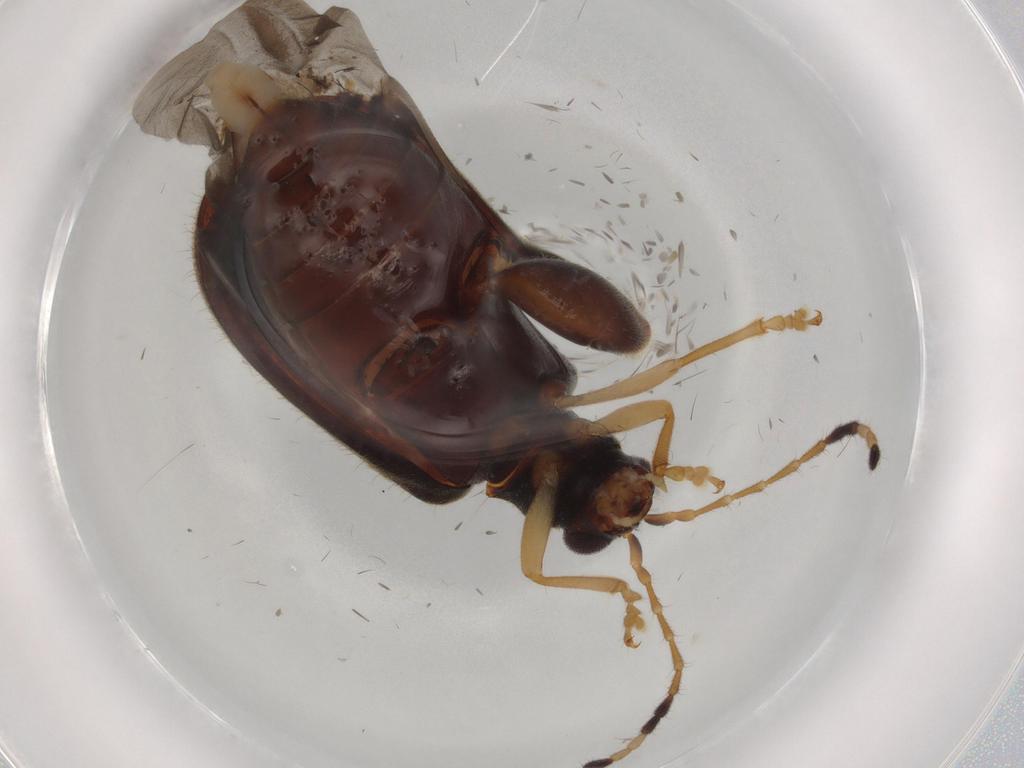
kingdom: Animalia
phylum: Arthropoda
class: Insecta
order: Coleoptera
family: Chrysomelidae
